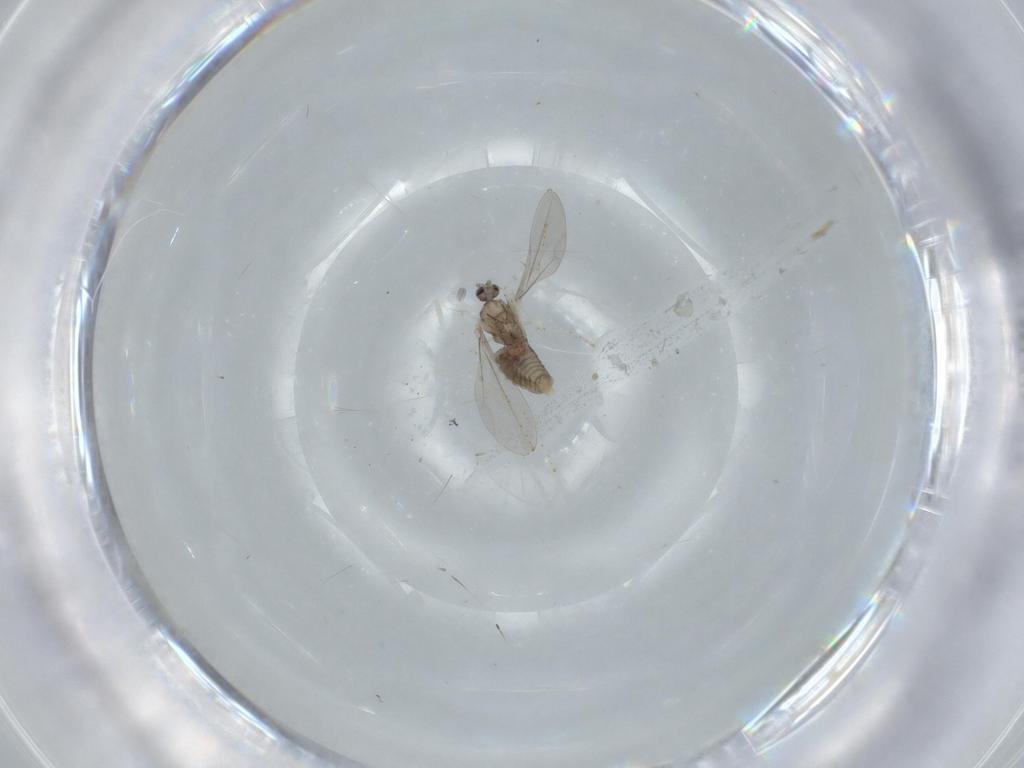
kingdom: Animalia
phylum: Arthropoda
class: Insecta
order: Diptera
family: Cecidomyiidae
